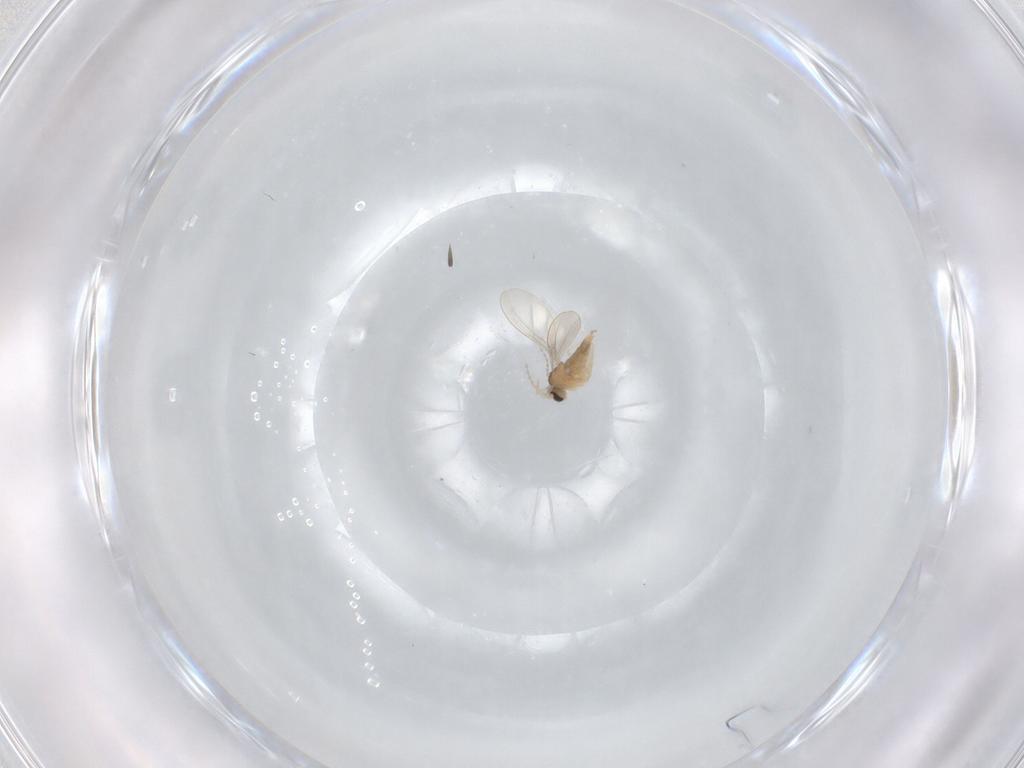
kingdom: Animalia
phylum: Arthropoda
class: Insecta
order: Diptera
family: Cecidomyiidae
